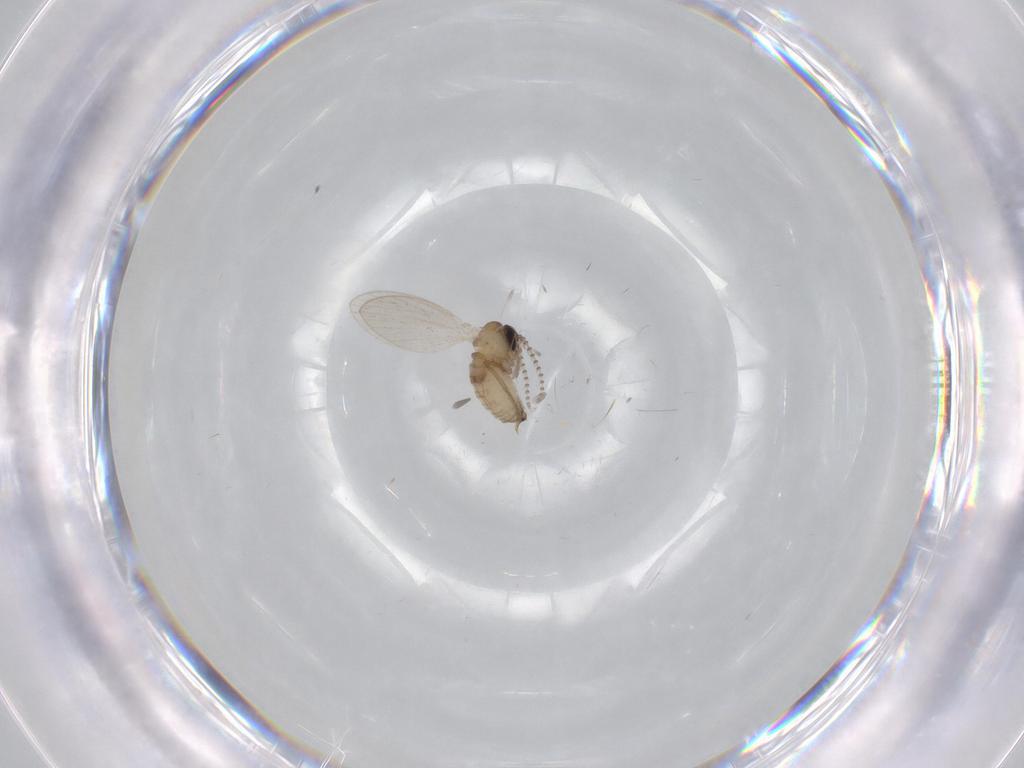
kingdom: Animalia
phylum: Arthropoda
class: Insecta
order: Diptera
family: Psychodidae
